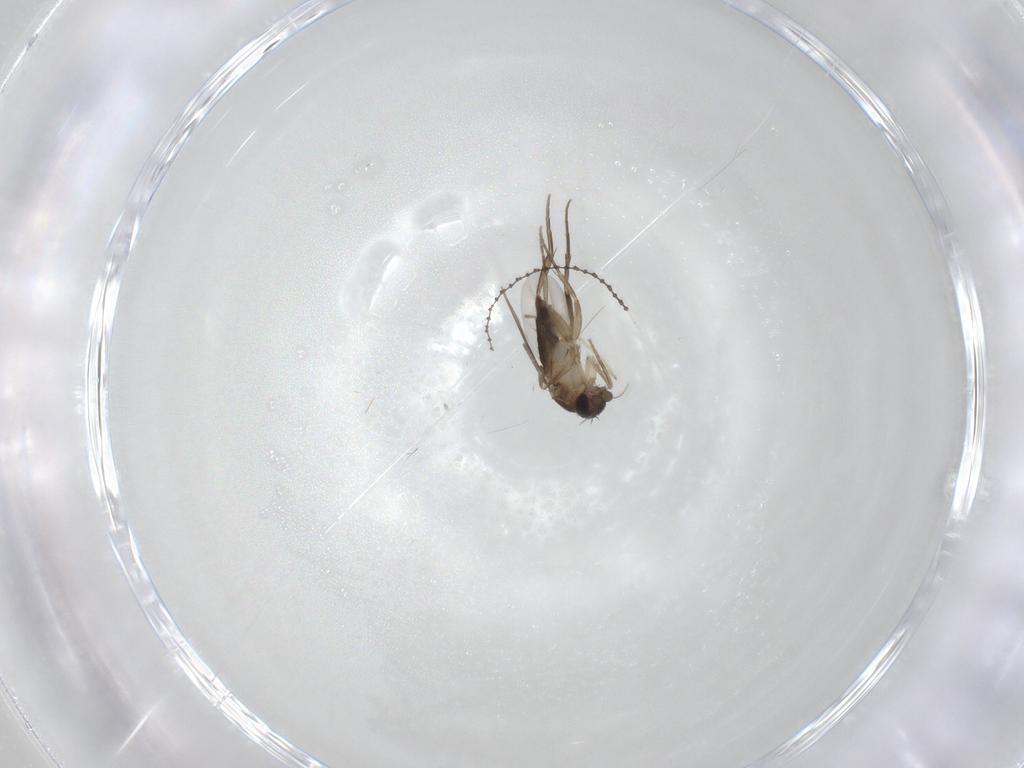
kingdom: Animalia
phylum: Arthropoda
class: Insecta
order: Diptera
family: Phoridae
